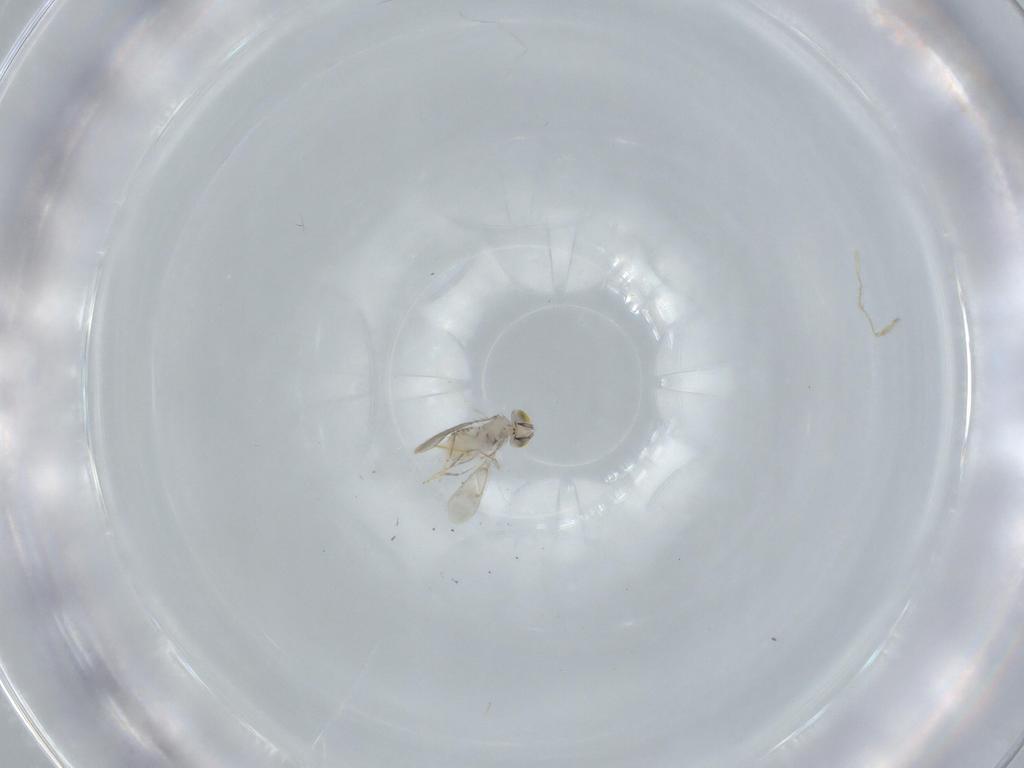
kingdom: Animalia
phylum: Arthropoda
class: Insecta
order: Hymenoptera
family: Aphelinidae
